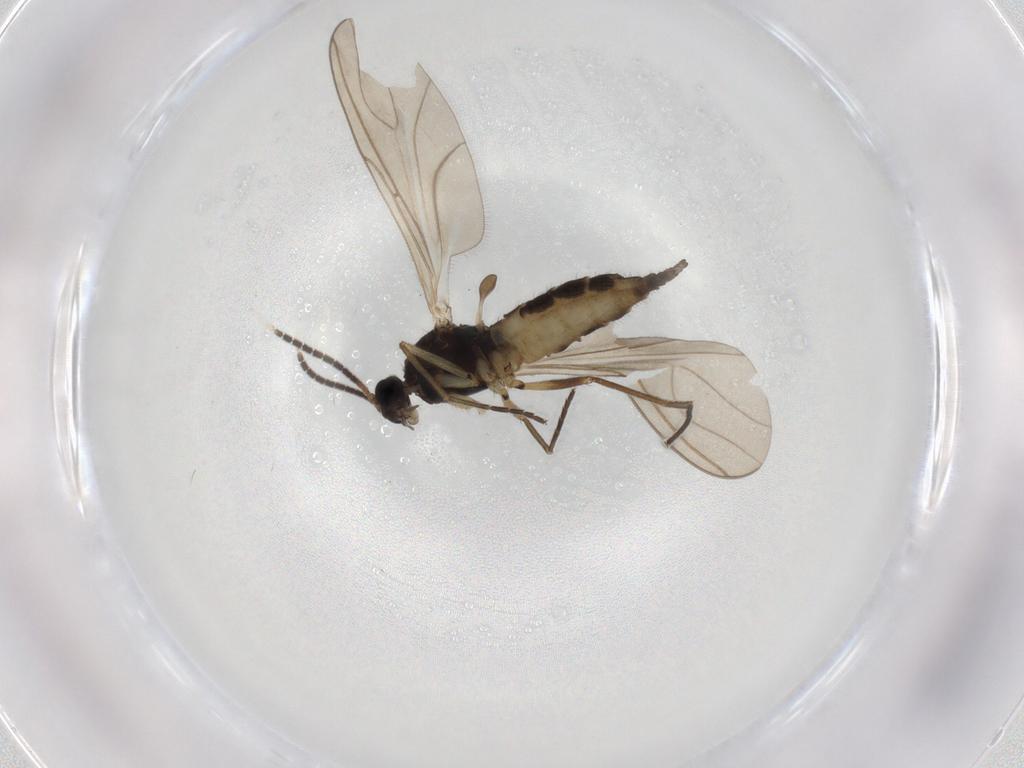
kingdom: Animalia
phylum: Arthropoda
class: Insecta
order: Diptera
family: Sciaridae
